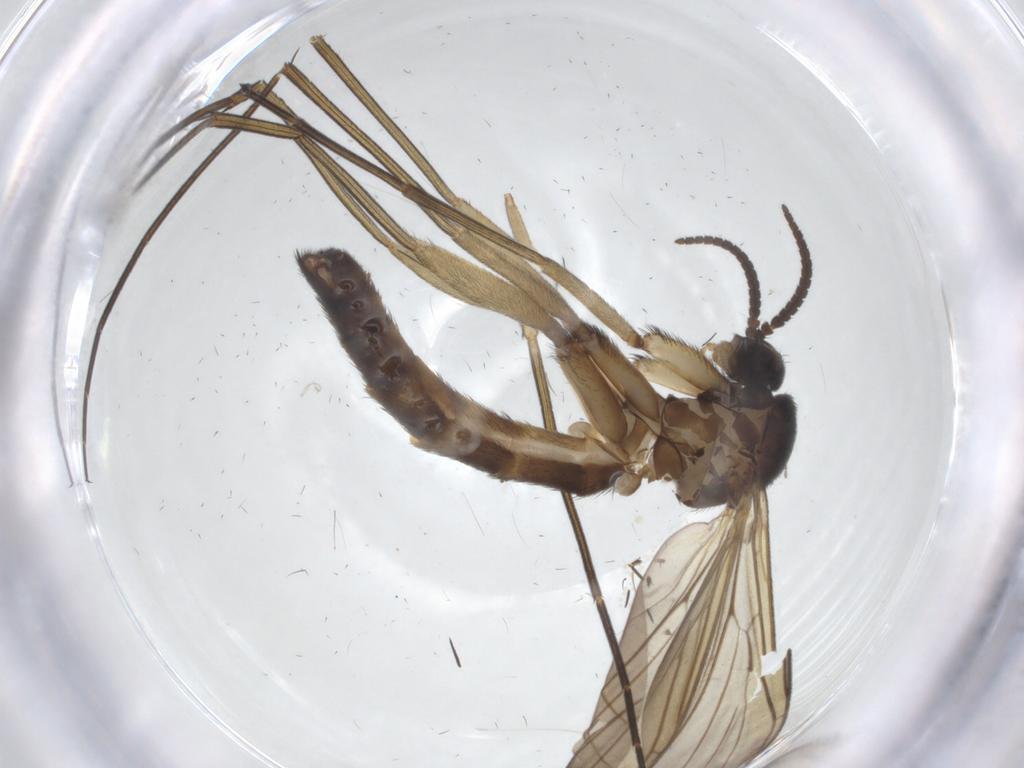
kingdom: Animalia
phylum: Arthropoda
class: Insecta
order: Diptera
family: Keroplatidae
